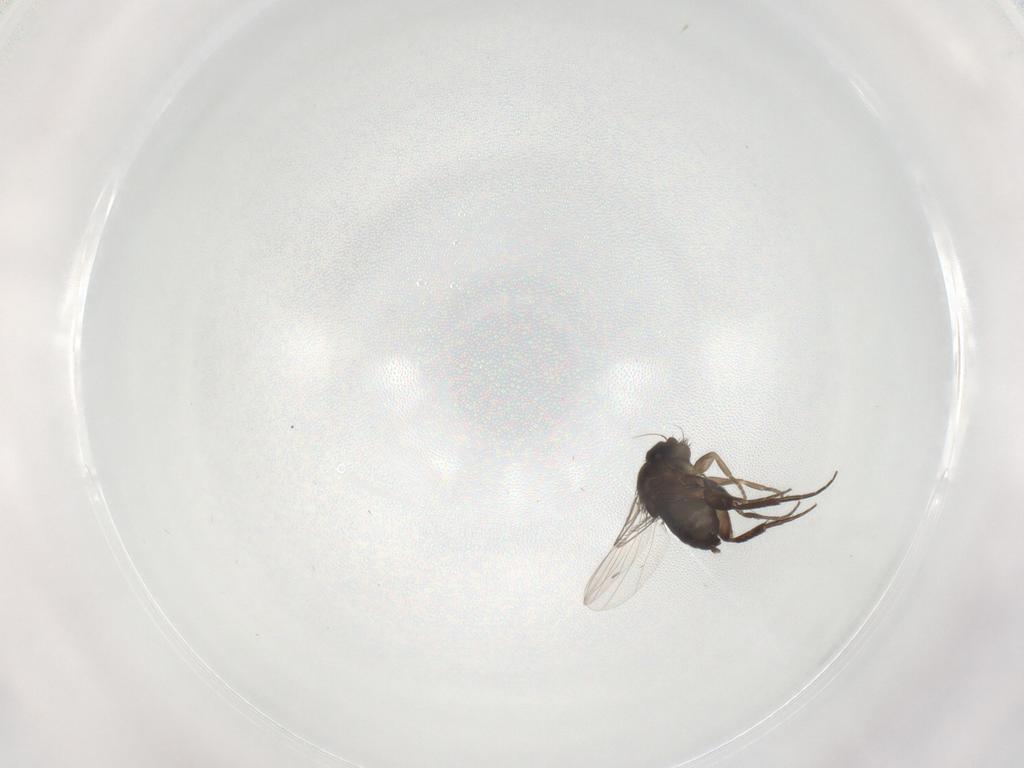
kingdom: Animalia
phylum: Arthropoda
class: Insecta
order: Diptera
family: Phoridae
